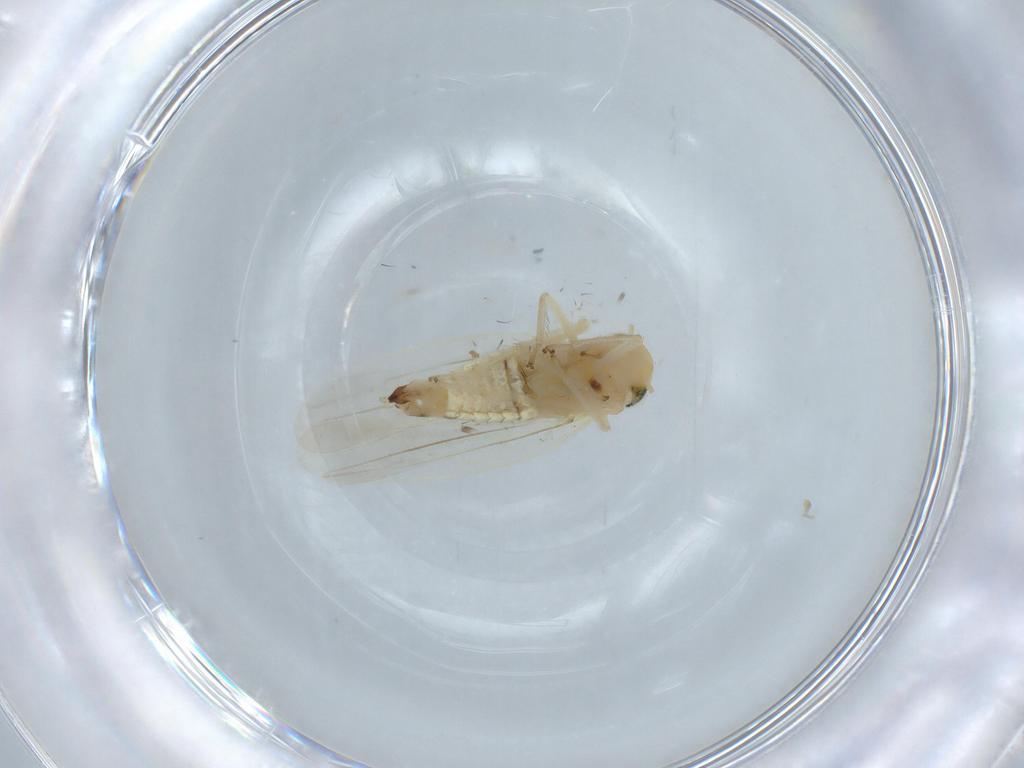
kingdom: Animalia
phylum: Arthropoda
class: Insecta
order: Hemiptera
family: Cicadellidae
